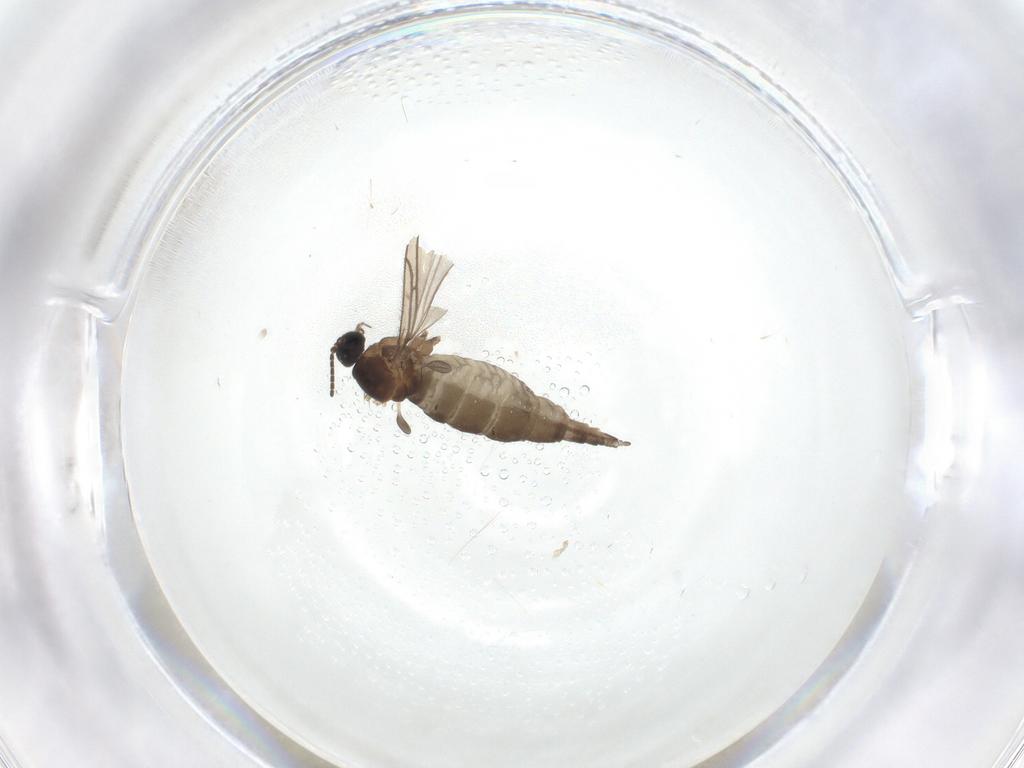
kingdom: Animalia
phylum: Arthropoda
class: Insecta
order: Diptera
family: Sciaridae
